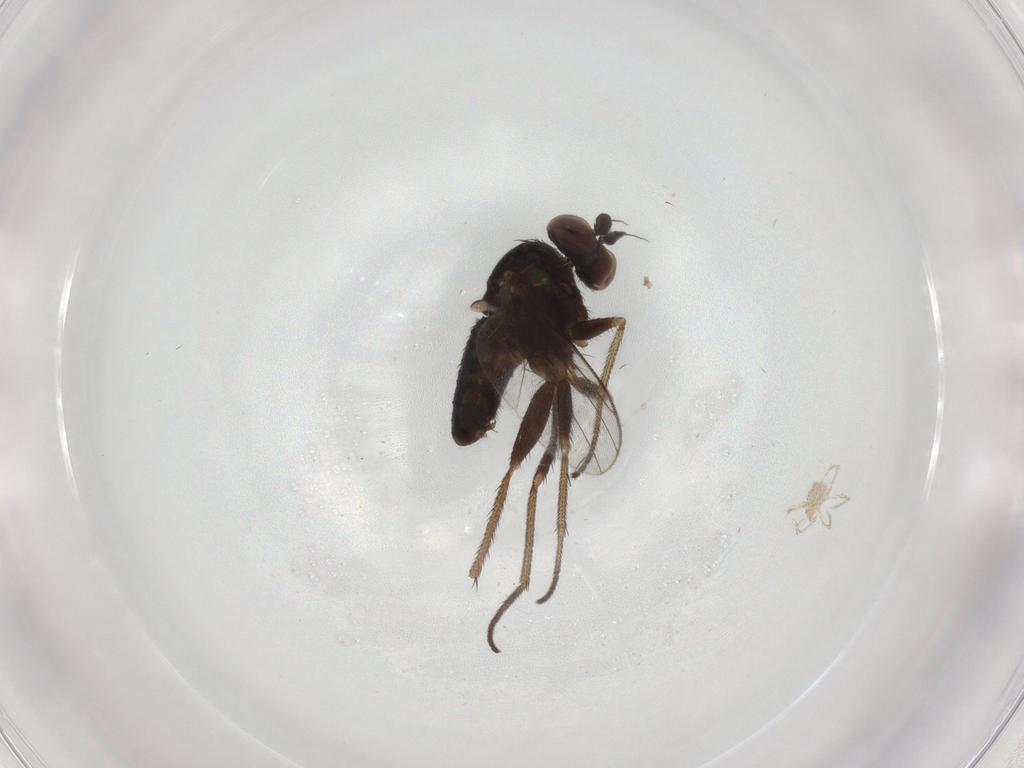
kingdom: Animalia
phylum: Arthropoda
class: Insecta
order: Diptera
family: Dolichopodidae
